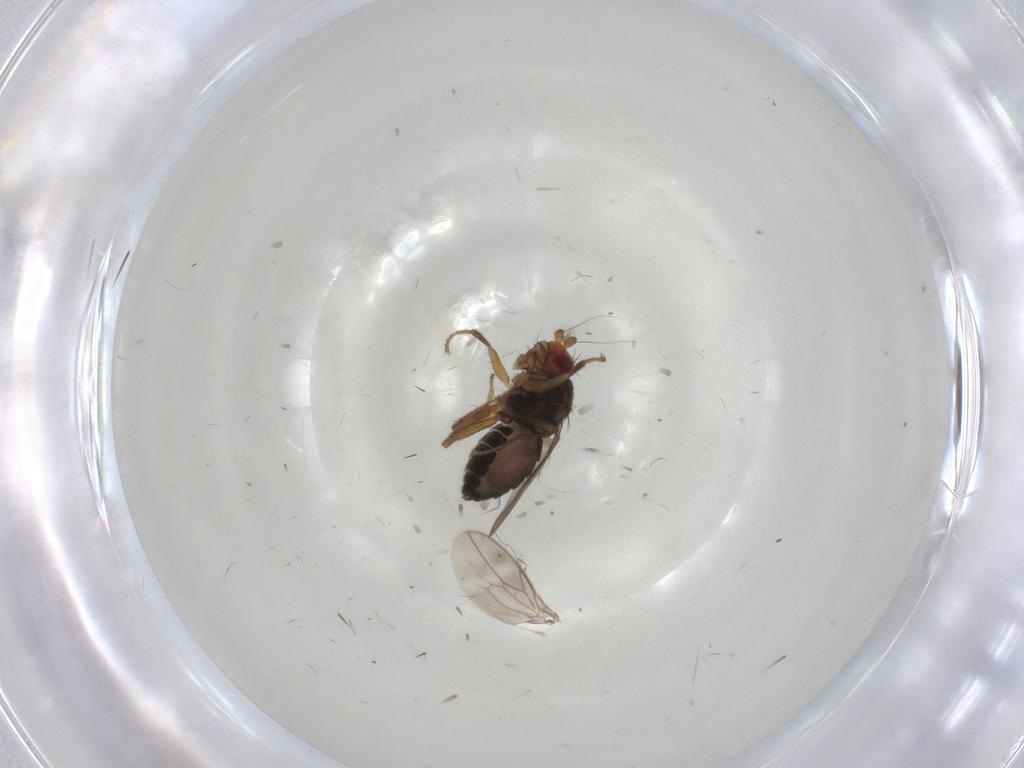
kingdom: Animalia
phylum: Arthropoda
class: Insecta
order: Diptera
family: Sphaeroceridae
